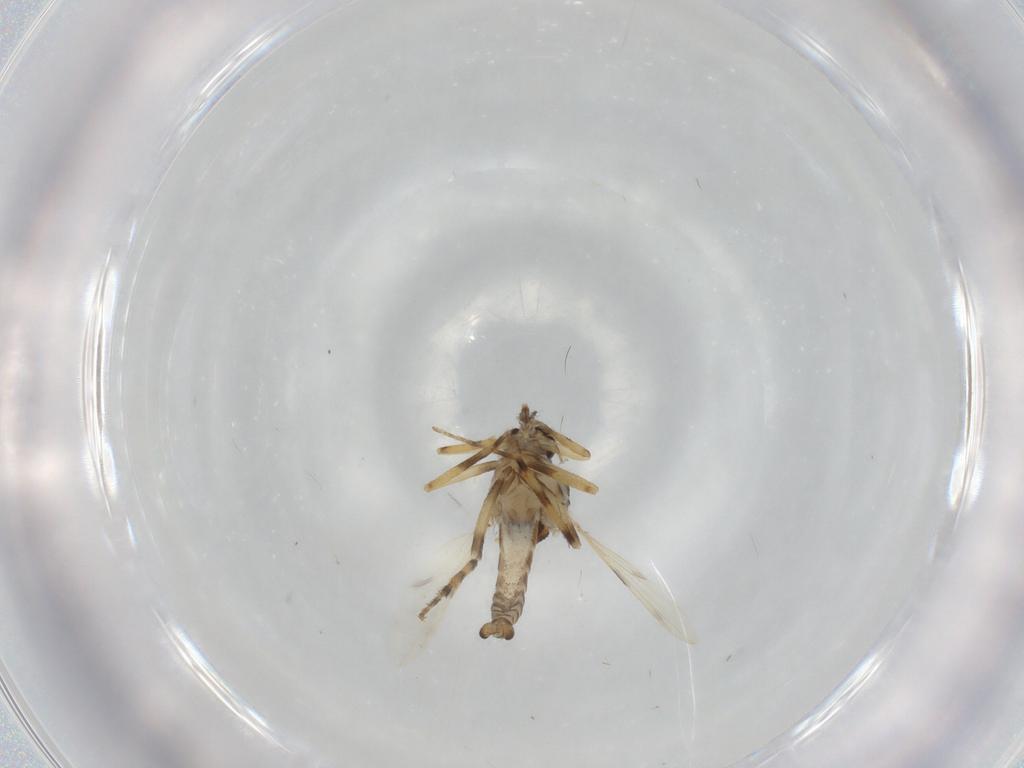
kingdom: Animalia
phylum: Arthropoda
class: Insecta
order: Diptera
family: Ceratopogonidae
